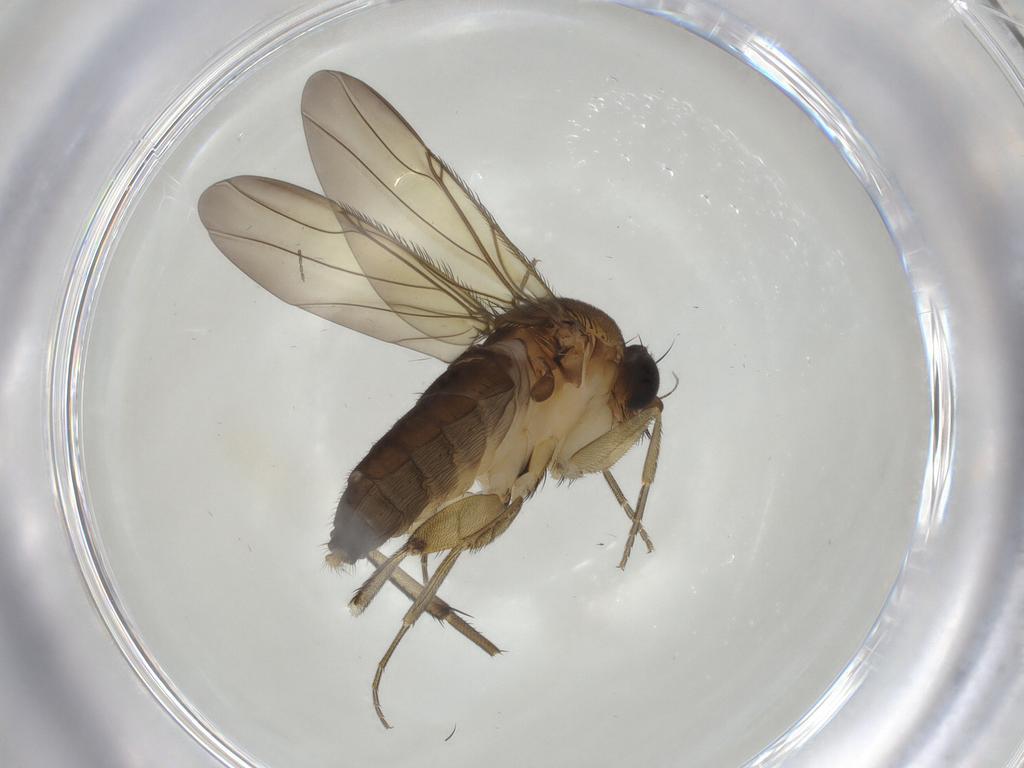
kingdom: Animalia
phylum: Arthropoda
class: Insecta
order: Diptera
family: Phoridae
